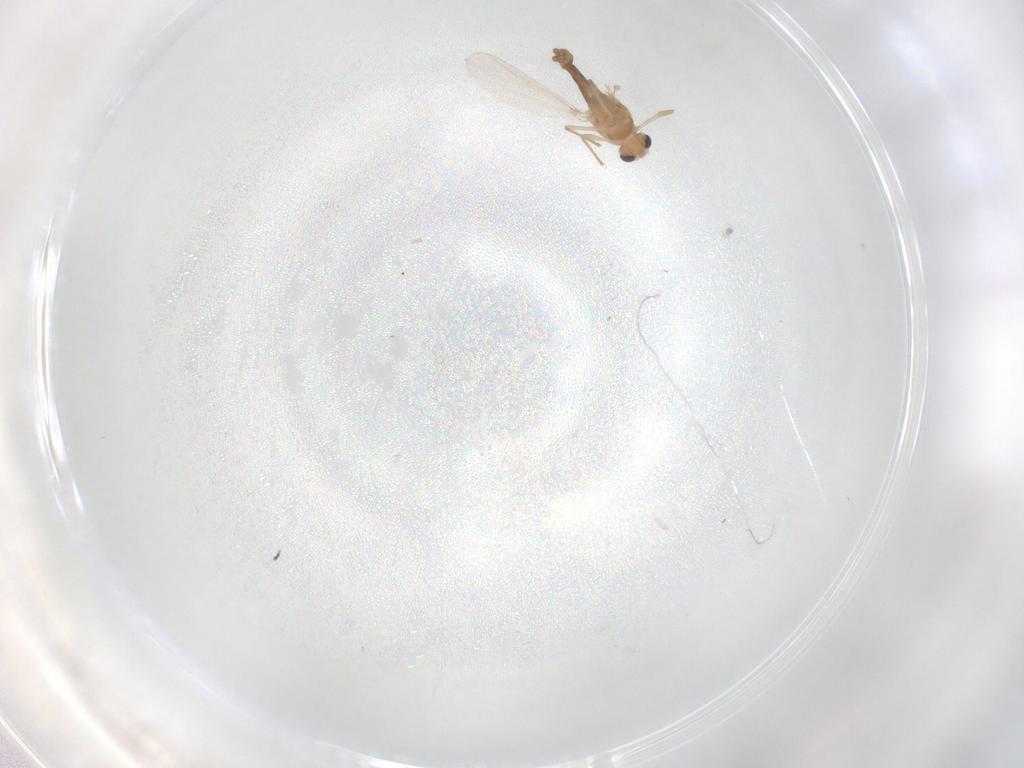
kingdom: Animalia
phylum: Arthropoda
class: Insecta
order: Diptera
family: Chironomidae
